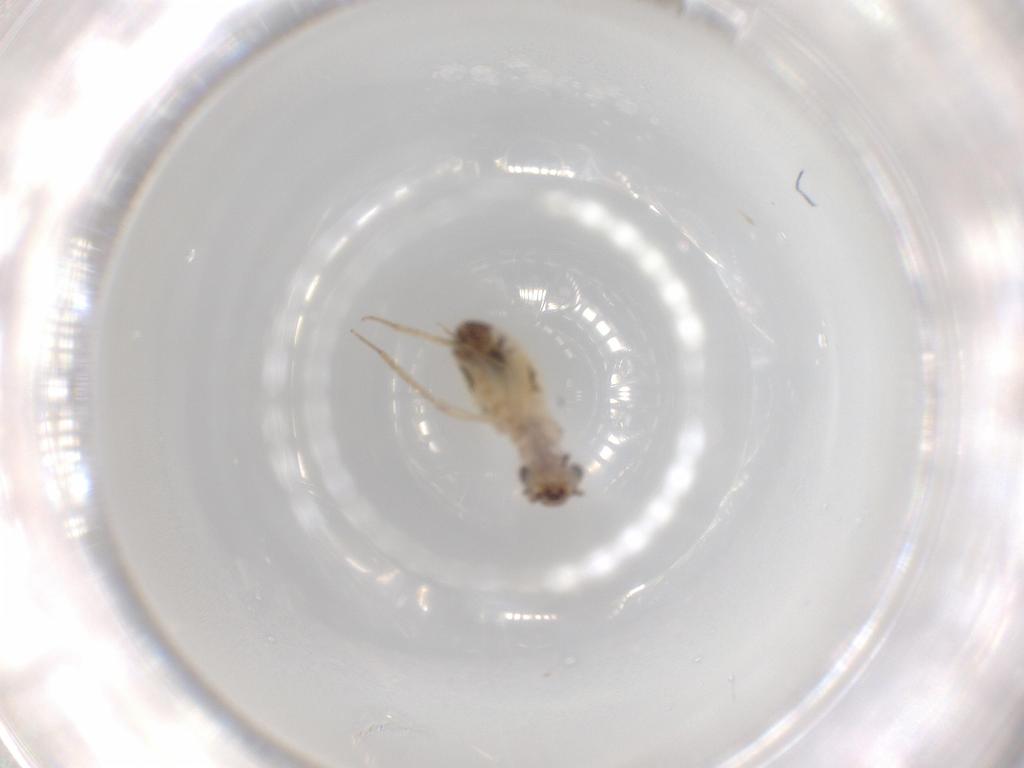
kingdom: Animalia
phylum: Arthropoda
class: Insecta
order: Psocodea
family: Lepidopsocidae
